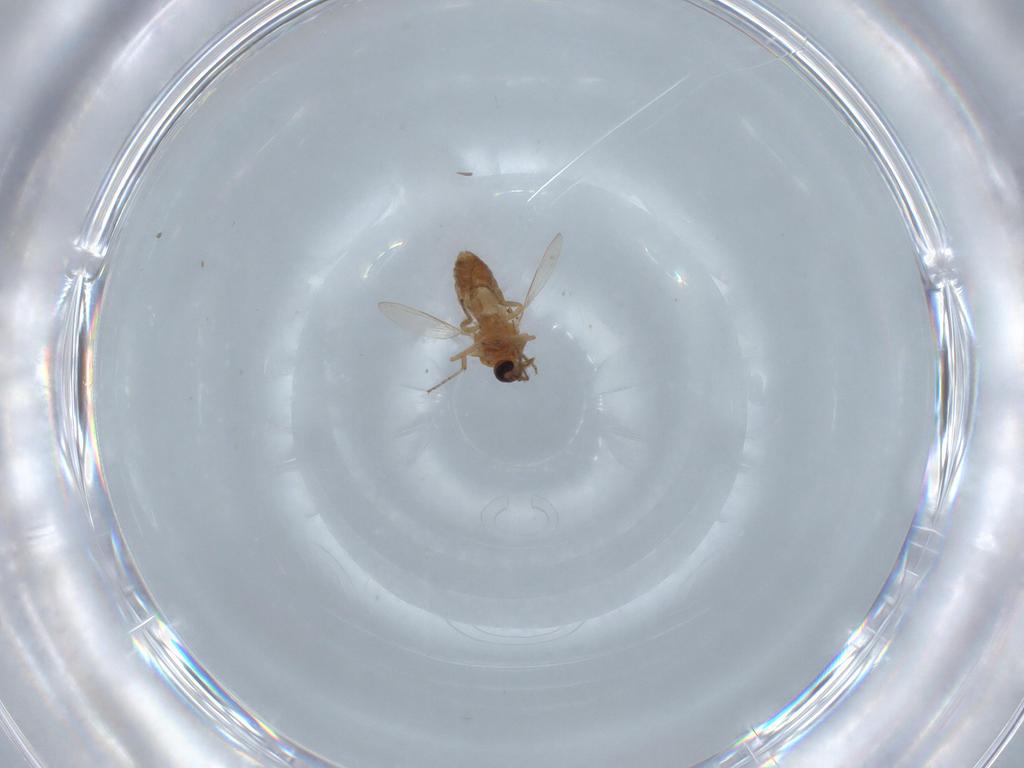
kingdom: Animalia
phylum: Arthropoda
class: Insecta
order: Diptera
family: Ceratopogonidae
